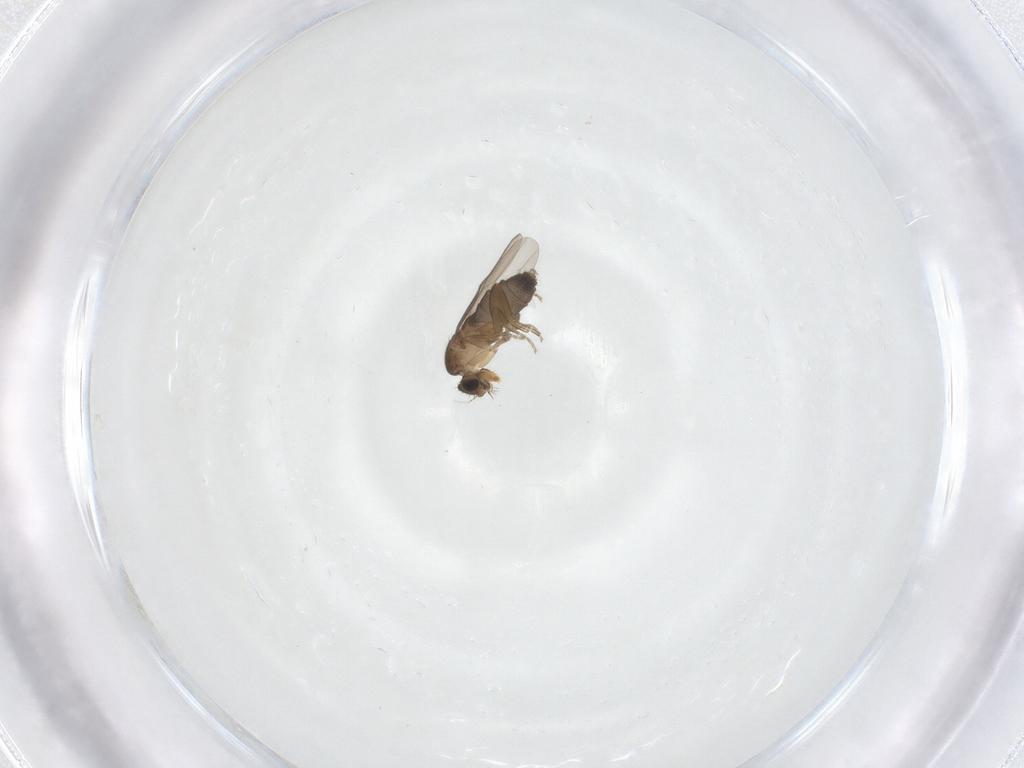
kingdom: Animalia
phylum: Arthropoda
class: Insecta
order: Diptera
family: Phoridae
